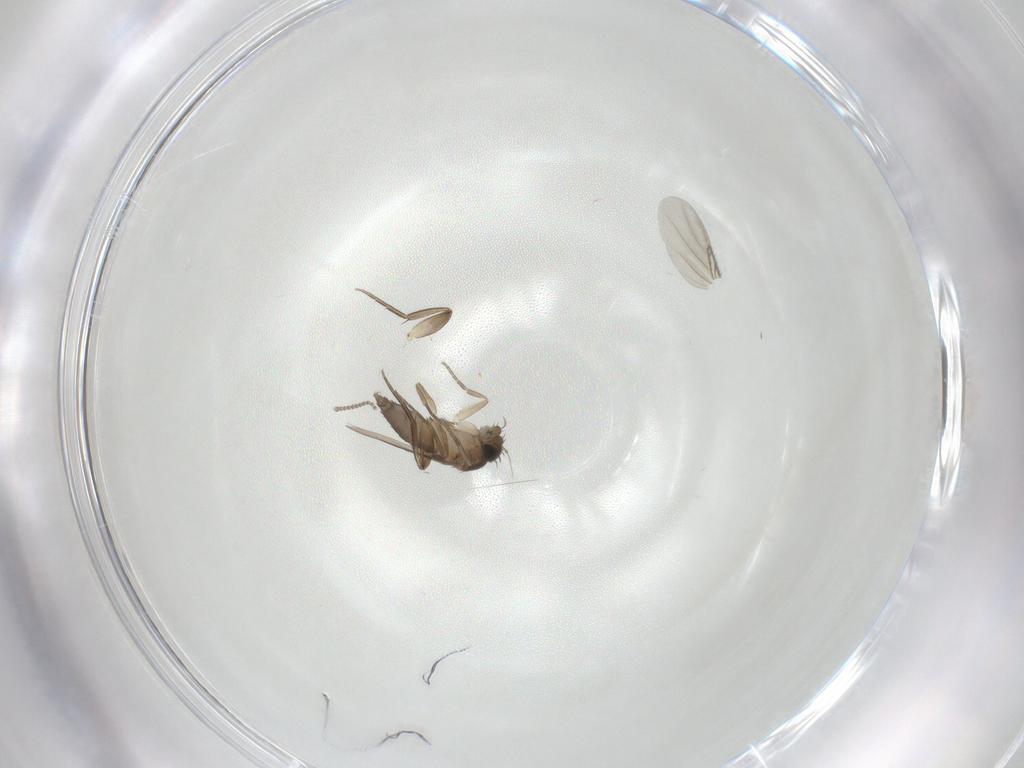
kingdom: Animalia
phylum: Arthropoda
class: Insecta
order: Diptera
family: Phoridae
